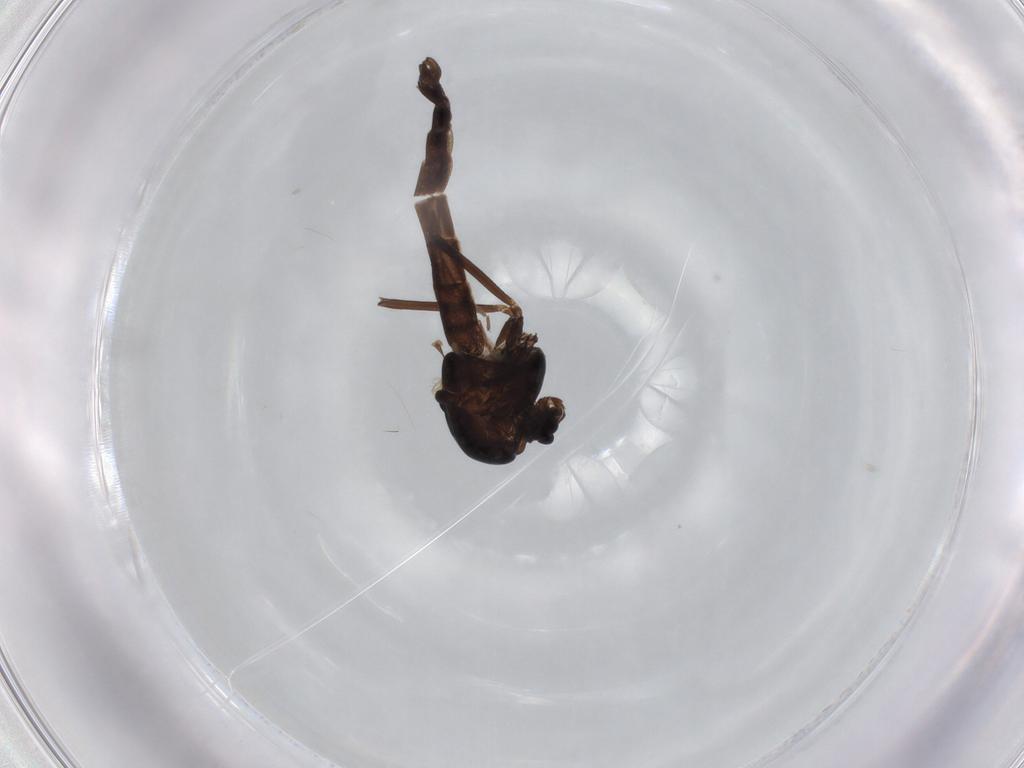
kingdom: Animalia
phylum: Arthropoda
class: Insecta
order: Diptera
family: Chironomidae
